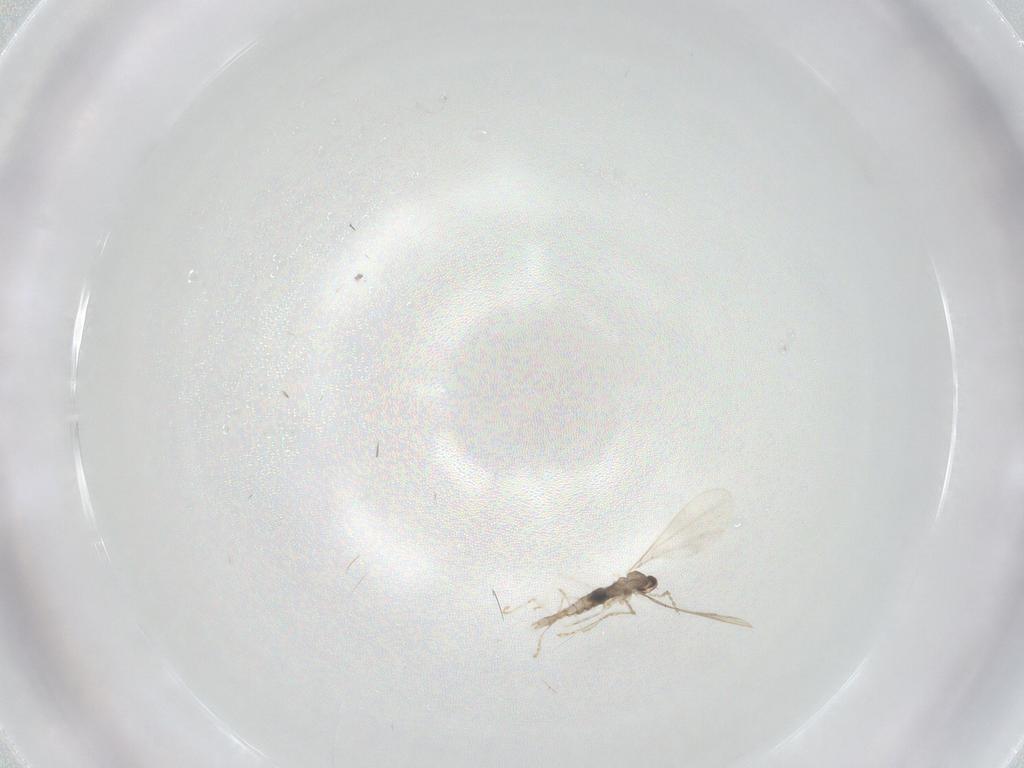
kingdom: Animalia
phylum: Arthropoda
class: Insecta
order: Diptera
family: Cecidomyiidae
